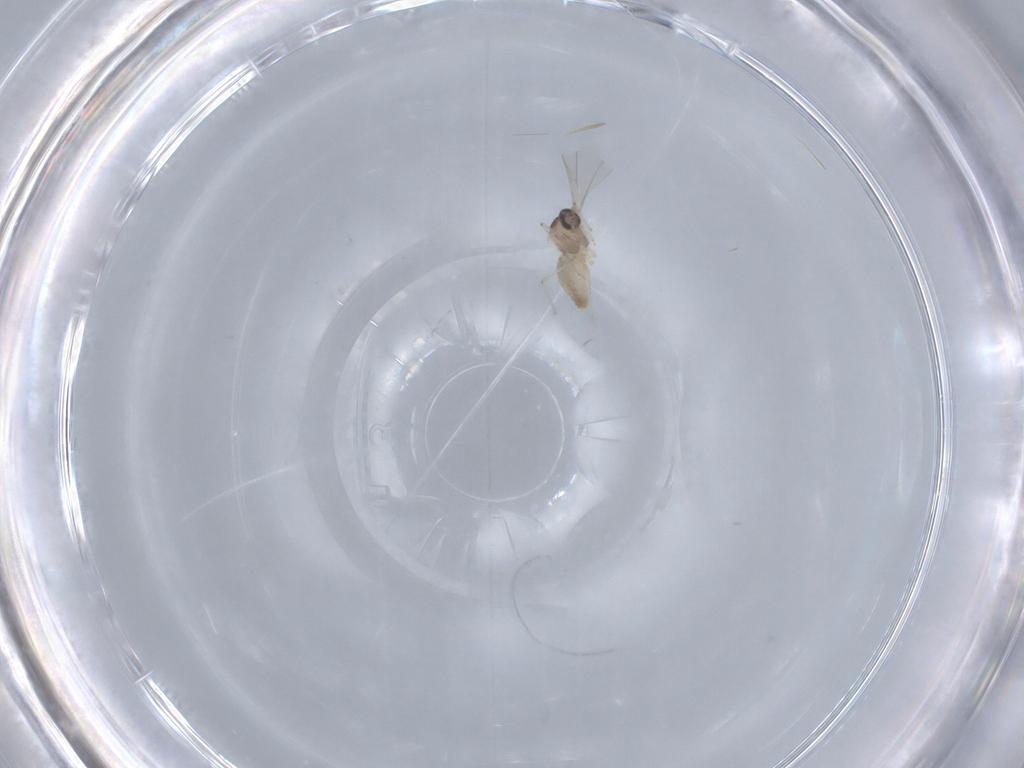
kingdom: Animalia
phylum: Arthropoda
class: Insecta
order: Diptera
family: Cecidomyiidae
